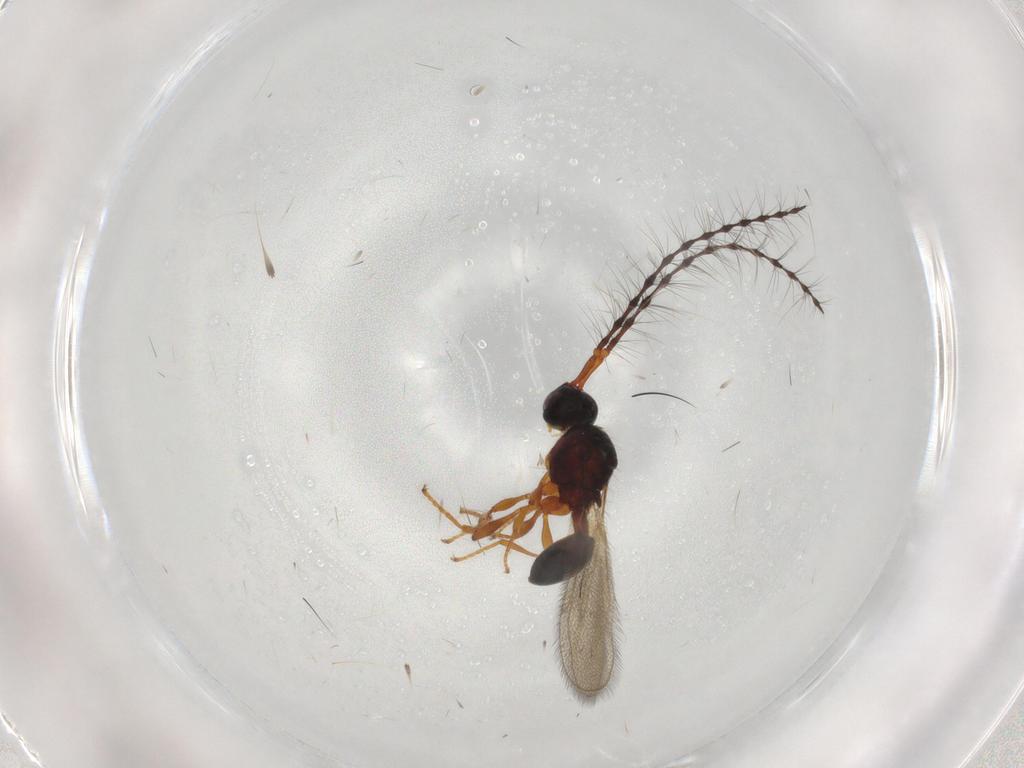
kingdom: Animalia
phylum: Arthropoda
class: Insecta
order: Hymenoptera
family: Diapriidae
